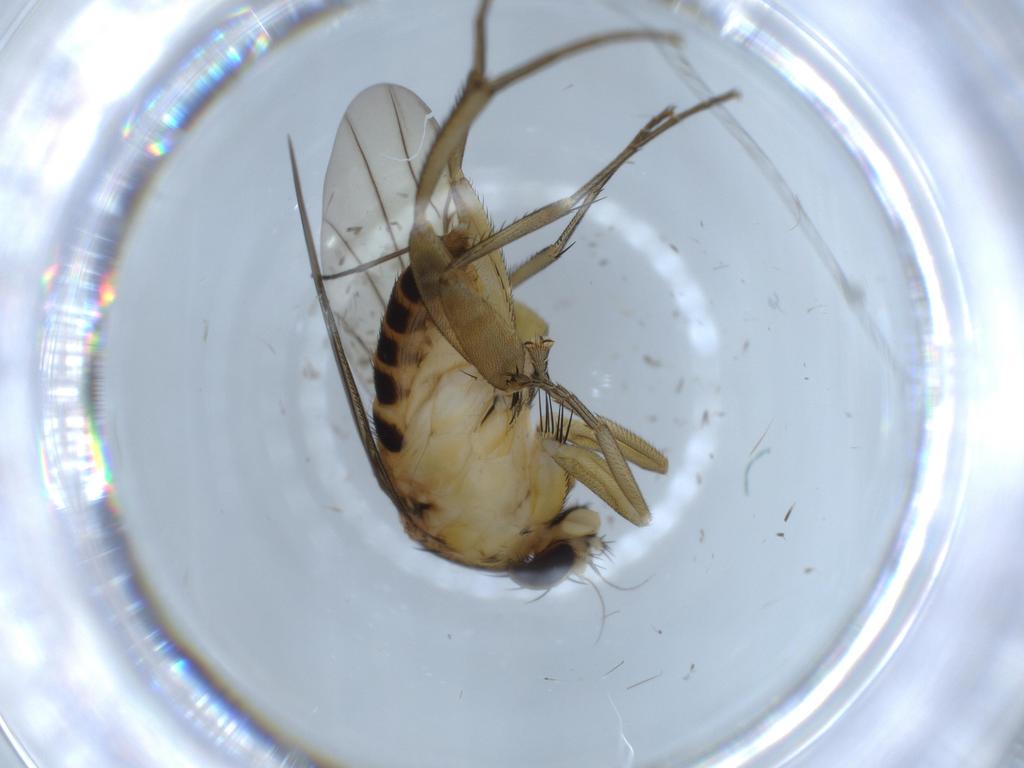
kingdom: Animalia
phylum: Arthropoda
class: Insecta
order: Diptera
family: Phoridae
